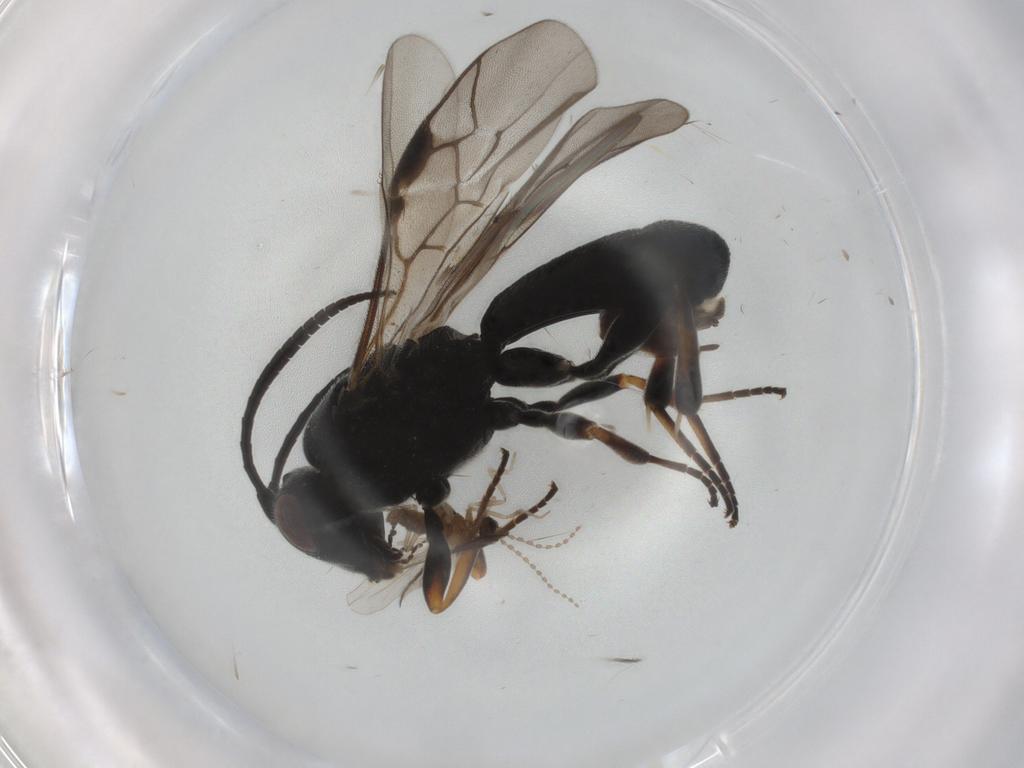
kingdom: Animalia
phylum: Arthropoda
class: Insecta
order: Diptera
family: Cecidomyiidae
